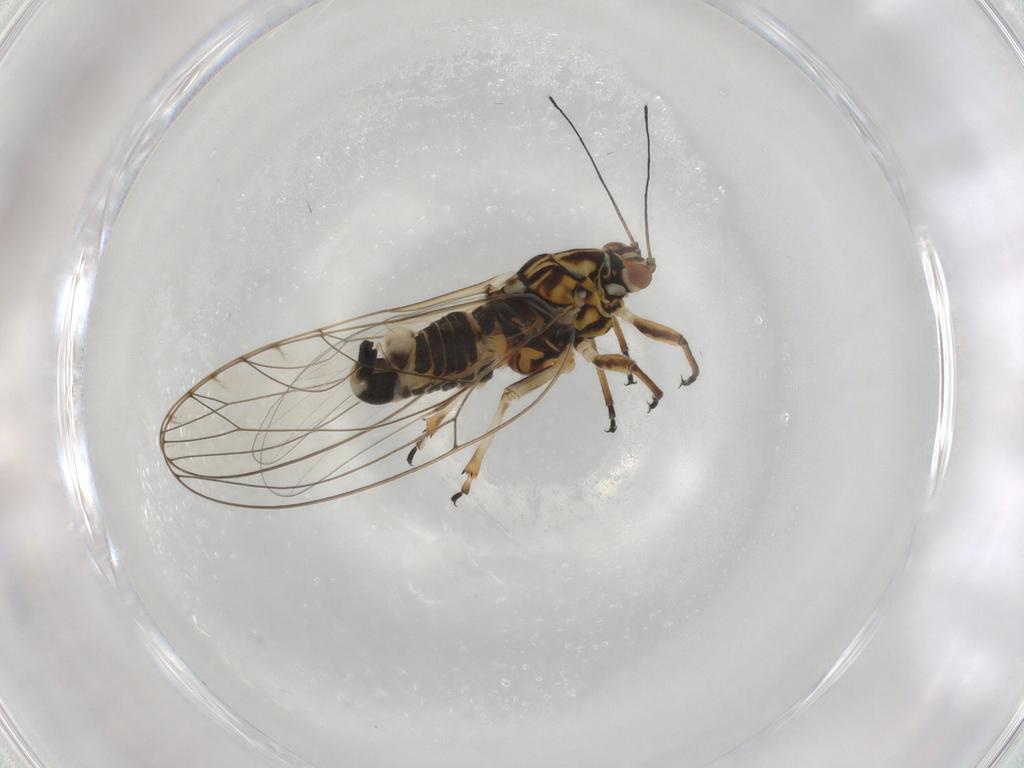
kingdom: Animalia
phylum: Arthropoda
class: Insecta
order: Hemiptera
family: Triozidae
